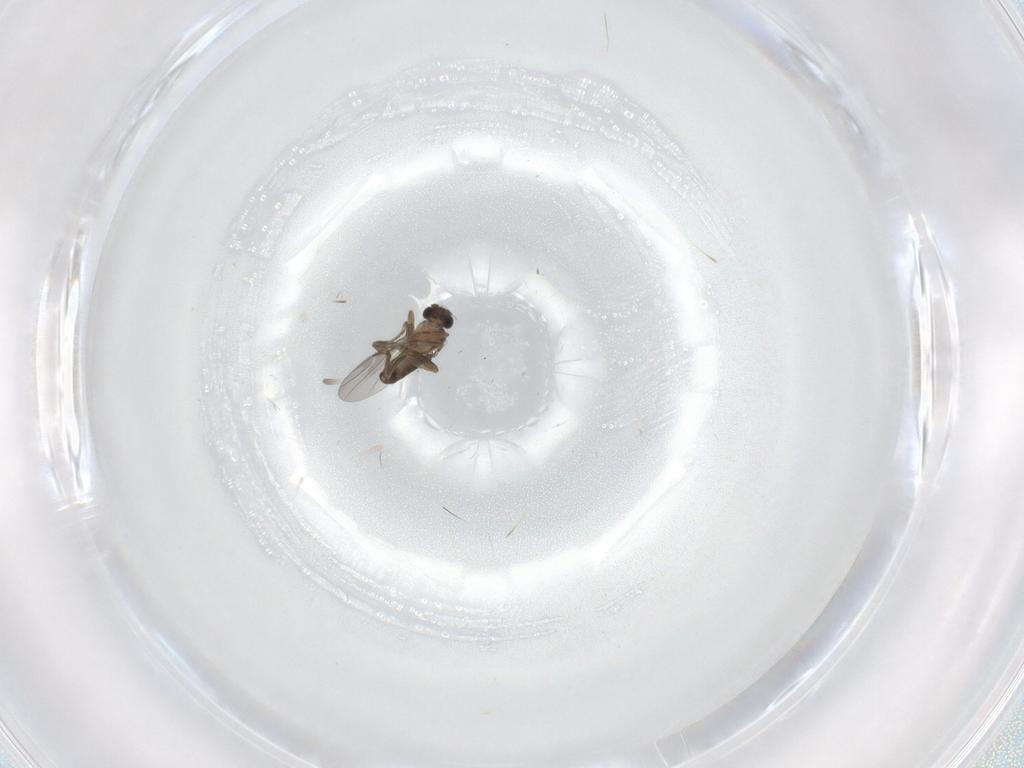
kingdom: Animalia
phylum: Arthropoda
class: Insecta
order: Diptera
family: Limoniidae
